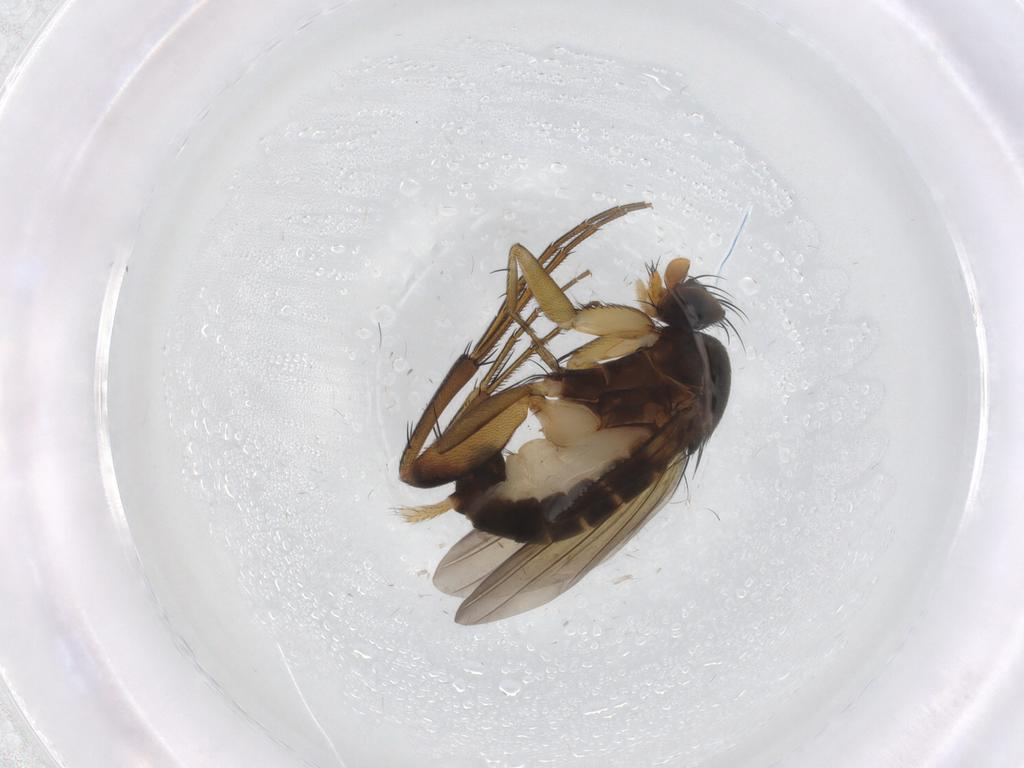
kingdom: Animalia
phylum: Arthropoda
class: Insecta
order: Diptera
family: Phoridae
